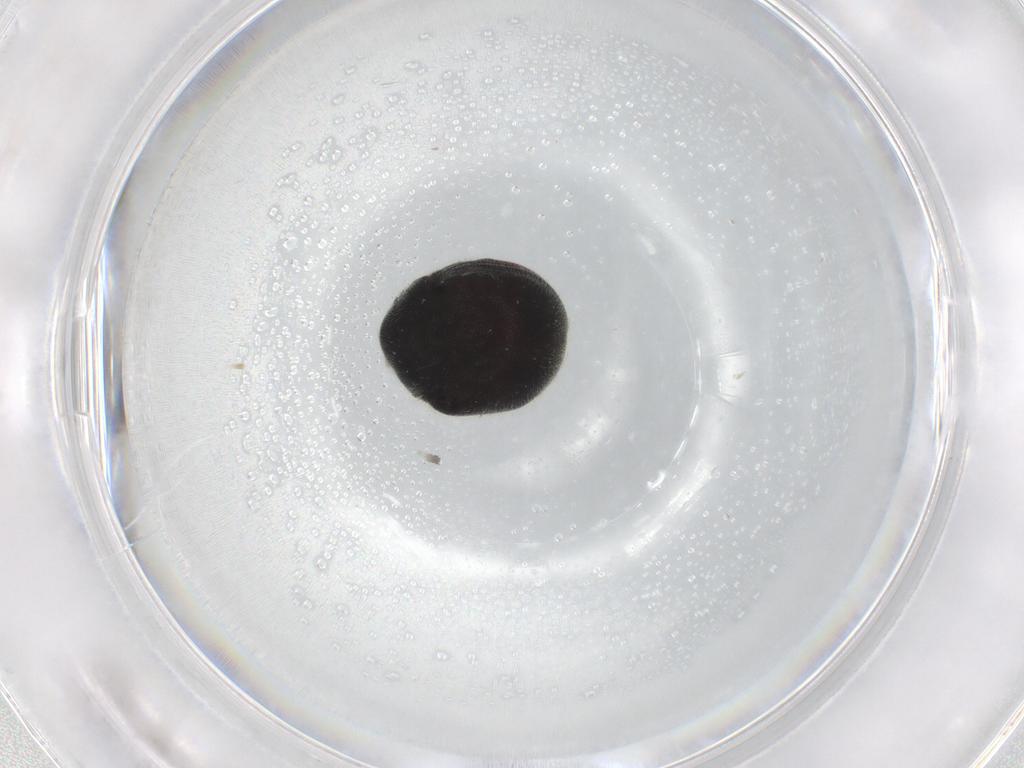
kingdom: Animalia
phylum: Arthropoda
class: Insecta
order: Coleoptera
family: Ptinidae
